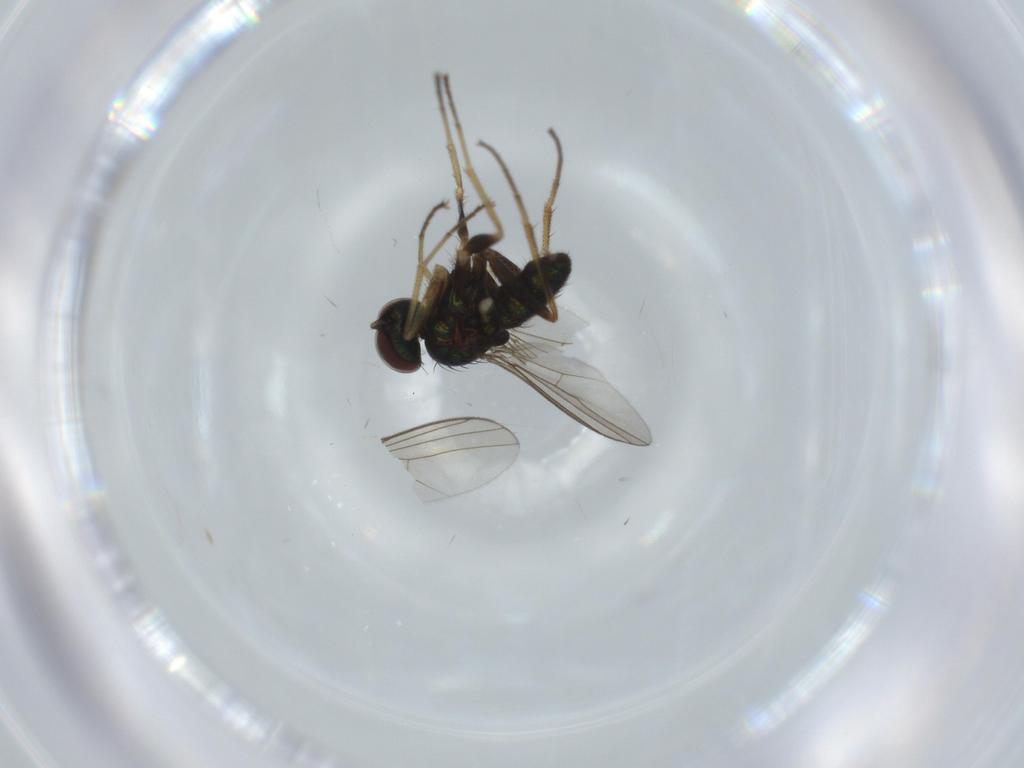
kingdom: Animalia
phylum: Arthropoda
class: Insecta
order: Diptera
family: Dolichopodidae
